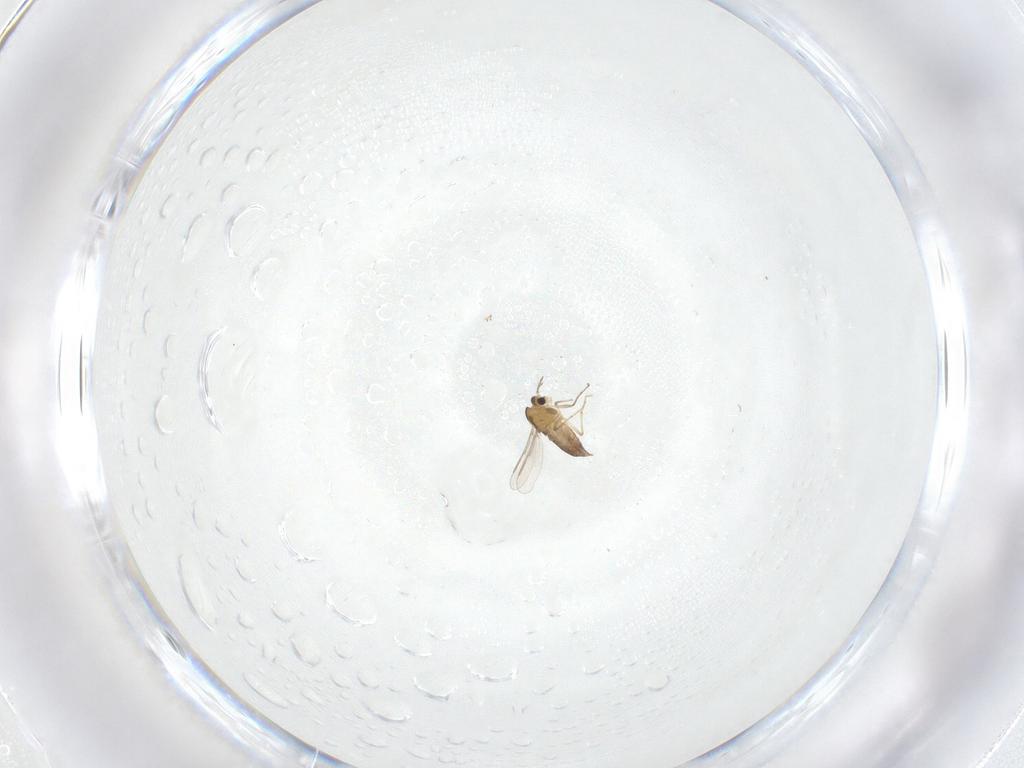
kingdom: Animalia
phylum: Arthropoda
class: Insecta
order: Diptera
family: Chironomidae
